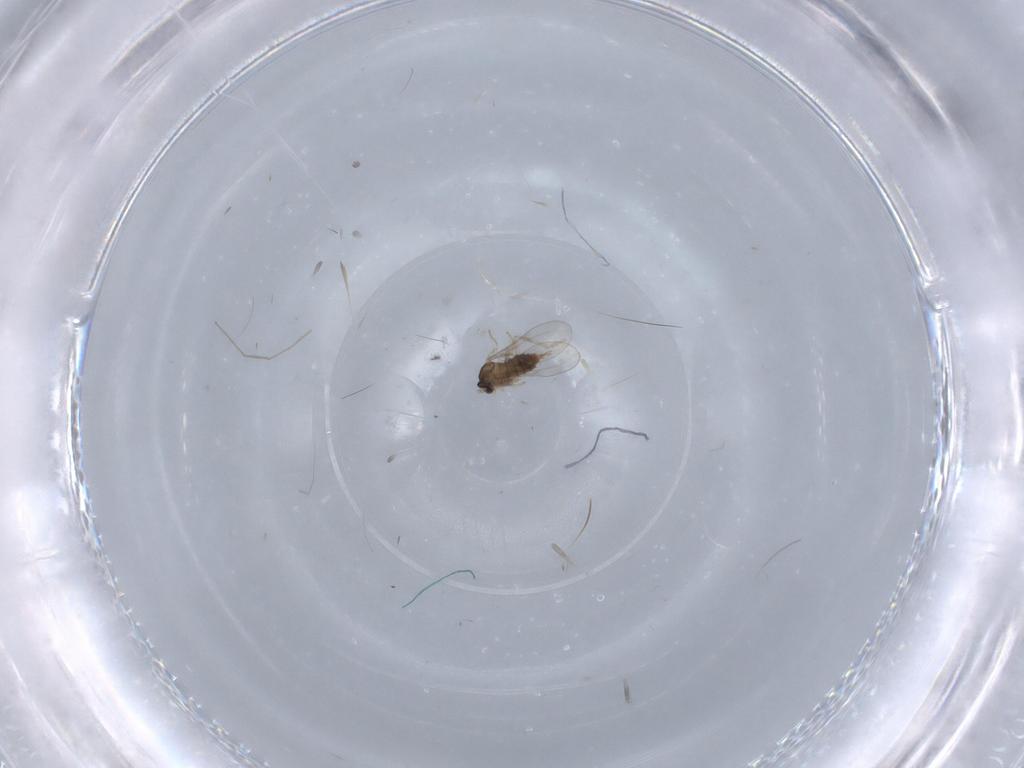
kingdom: Animalia
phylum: Arthropoda
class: Insecta
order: Diptera
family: Cecidomyiidae
